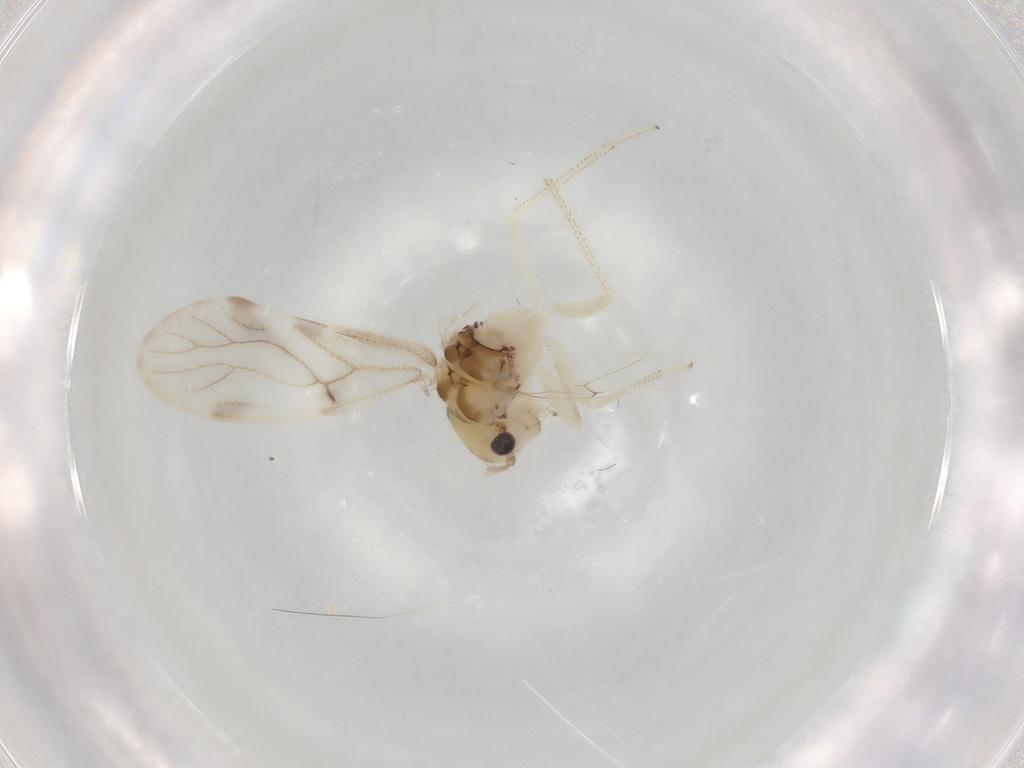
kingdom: Animalia
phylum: Arthropoda
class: Insecta
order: Psocodea
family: Pseudocaeciliidae
